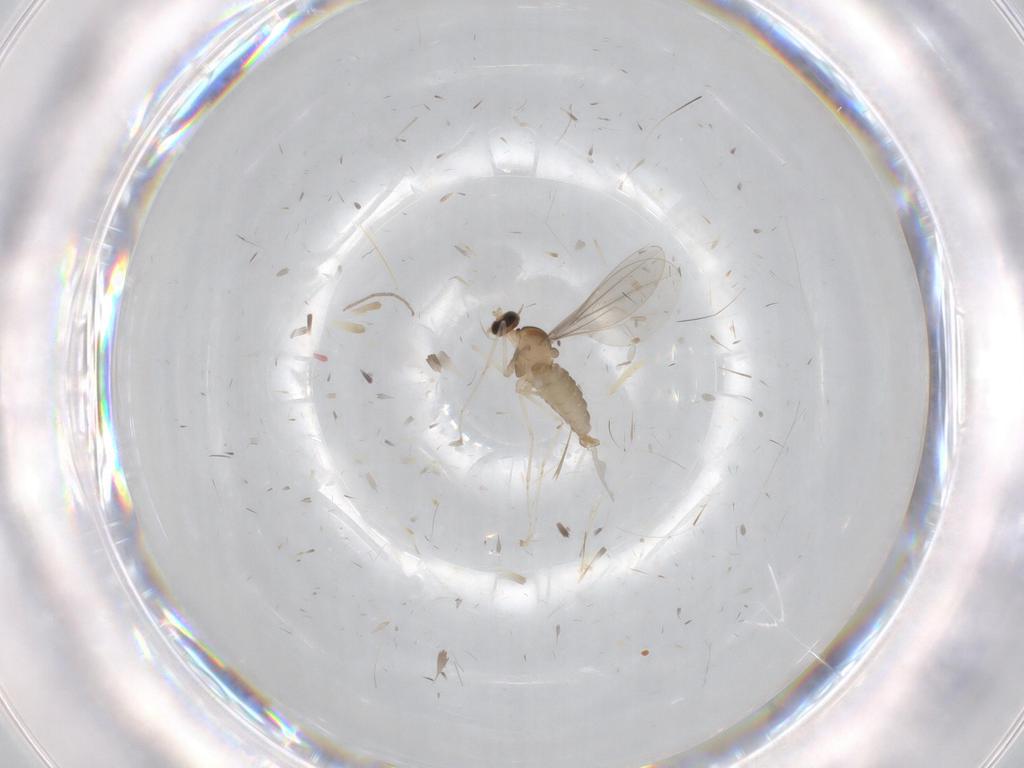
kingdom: Animalia
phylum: Arthropoda
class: Insecta
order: Diptera
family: Cecidomyiidae
